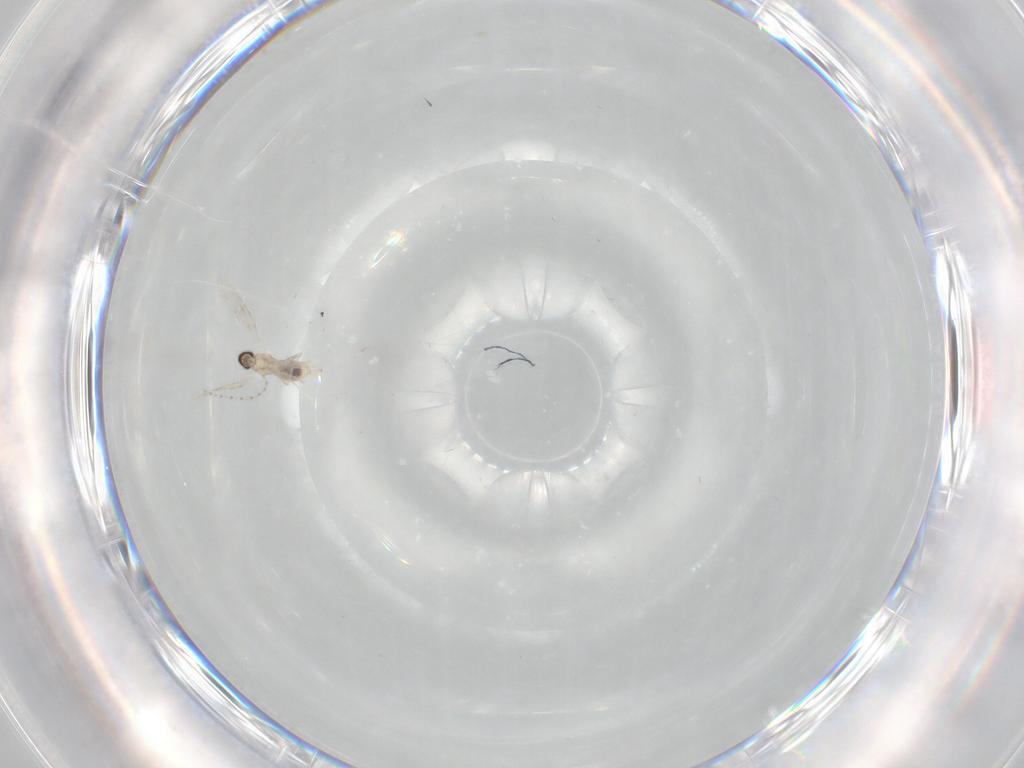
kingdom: Animalia
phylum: Arthropoda
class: Insecta
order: Diptera
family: Cecidomyiidae
